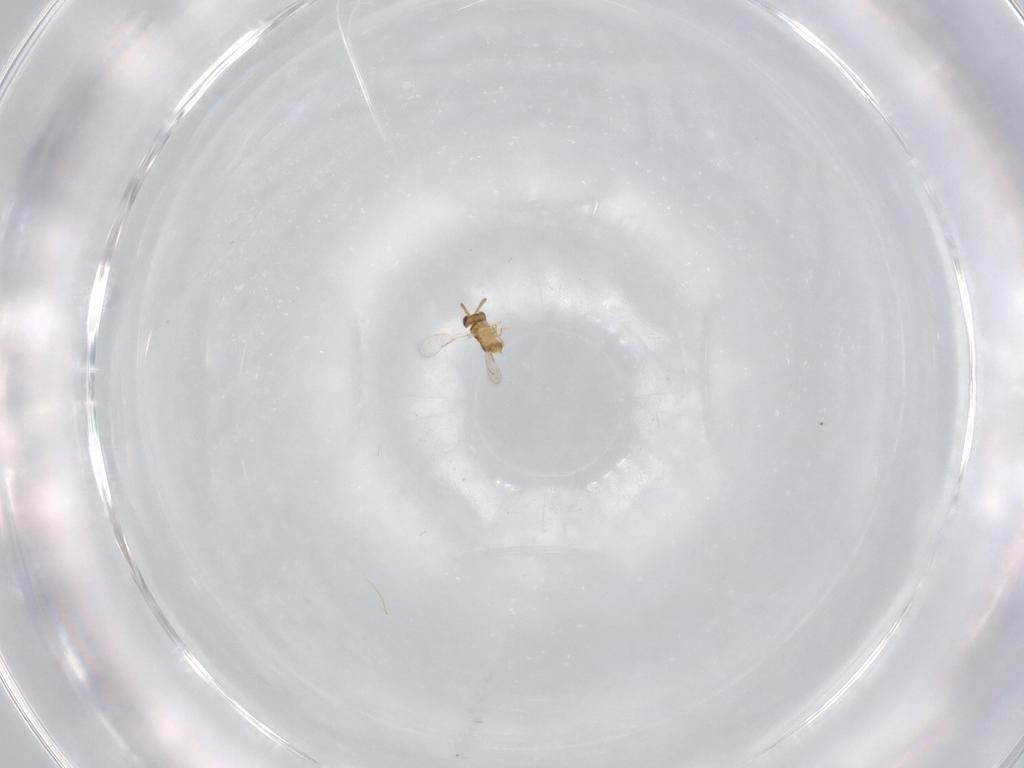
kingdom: Animalia
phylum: Arthropoda
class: Insecta
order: Hymenoptera
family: Aphelinidae
